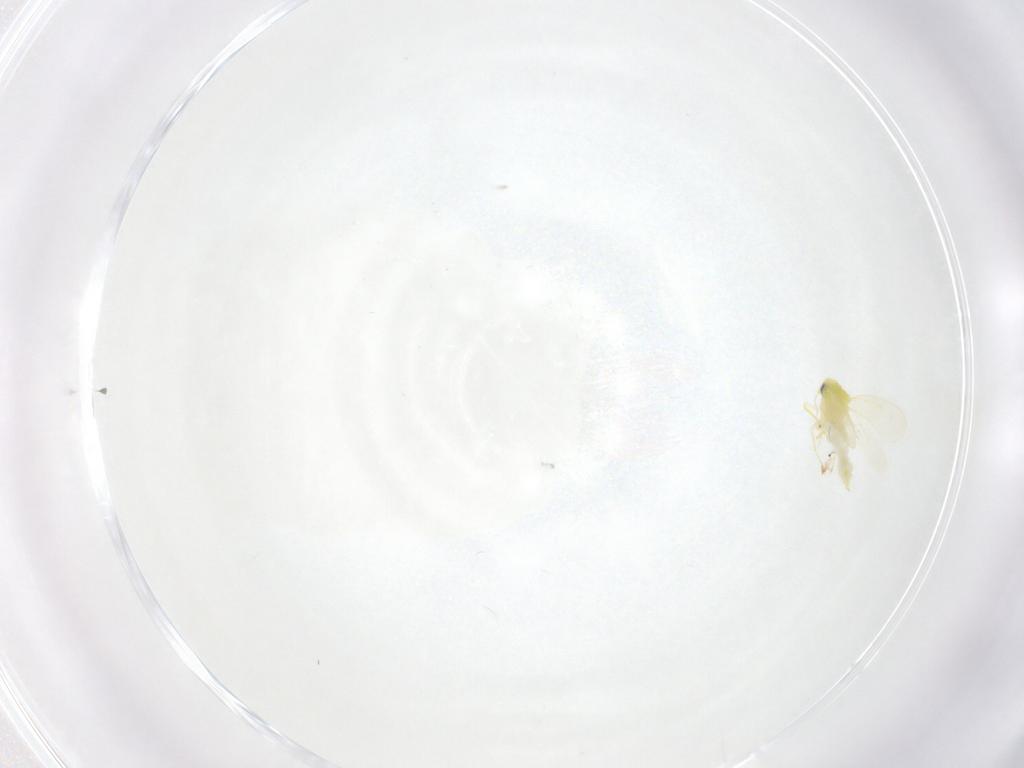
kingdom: Animalia
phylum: Arthropoda
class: Insecta
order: Hemiptera
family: Aleyrodidae
